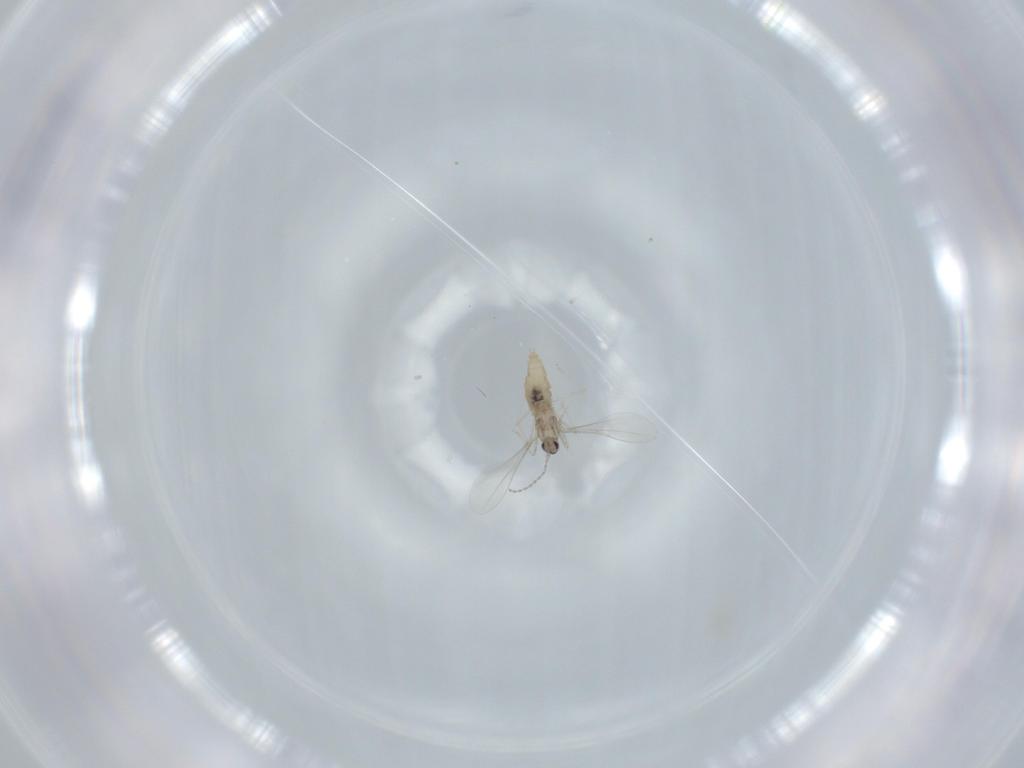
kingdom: Animalia
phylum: Arthropoda
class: Insecta
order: Diptera
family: Cecidomyiidae
